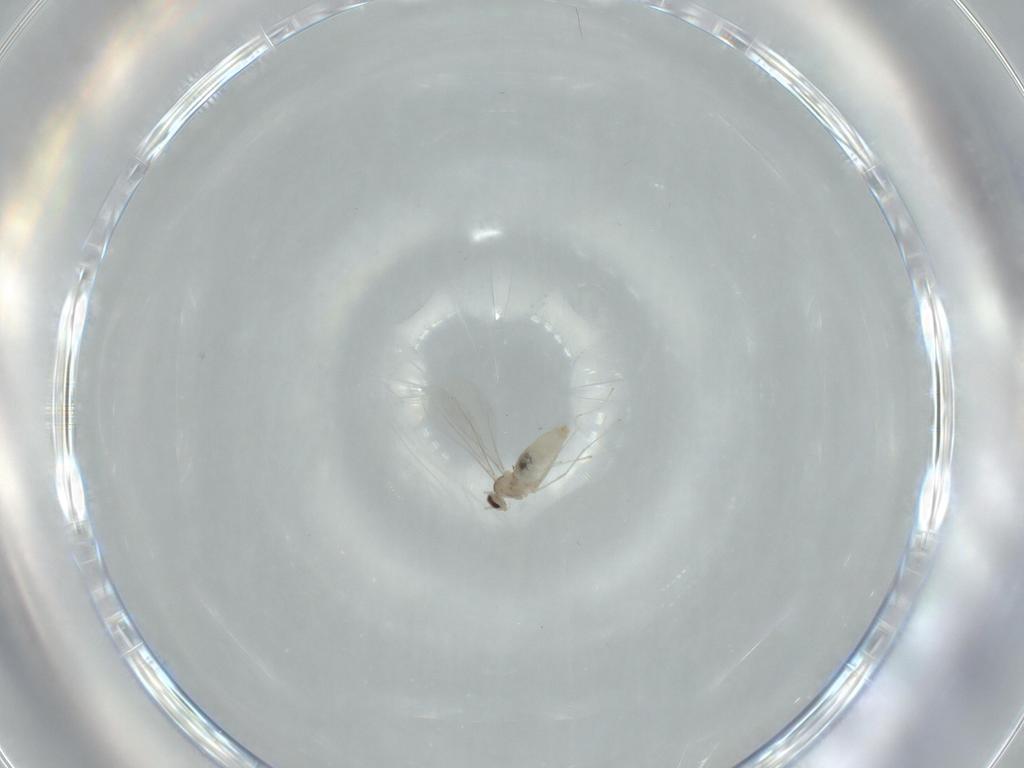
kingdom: Animalia
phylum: Arthropoda
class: Insecta
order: Diptera
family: Cecidomyiidae
